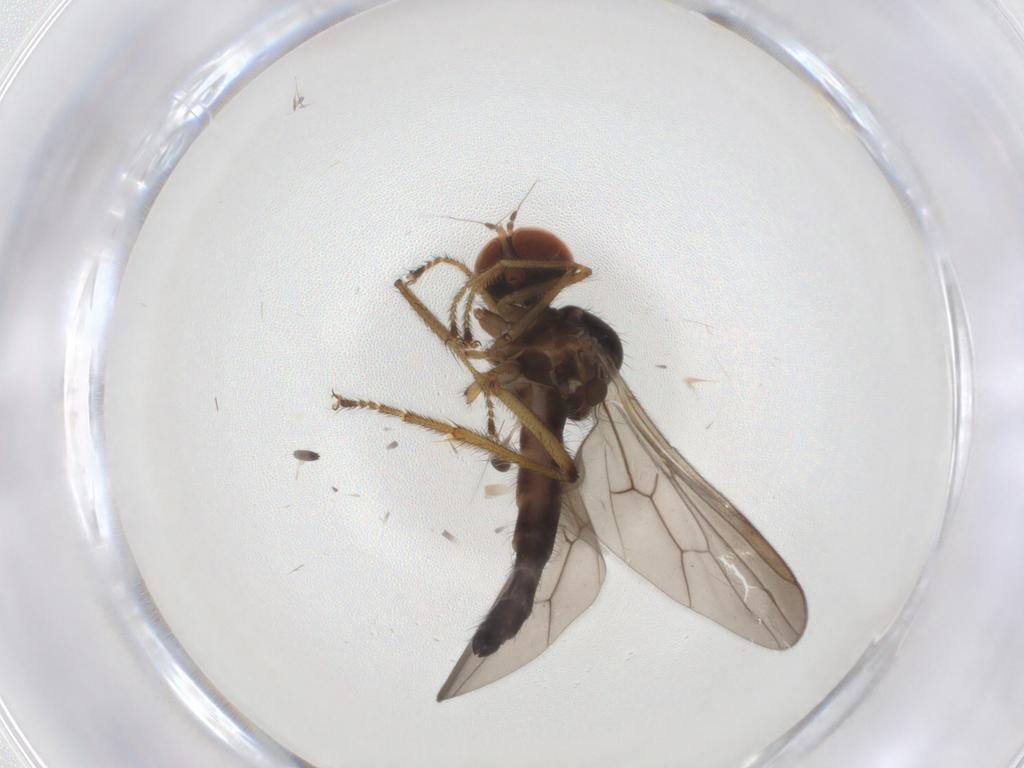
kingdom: Animalia
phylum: Arthropoda
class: Insecta
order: Diptera
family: Hybotidae
